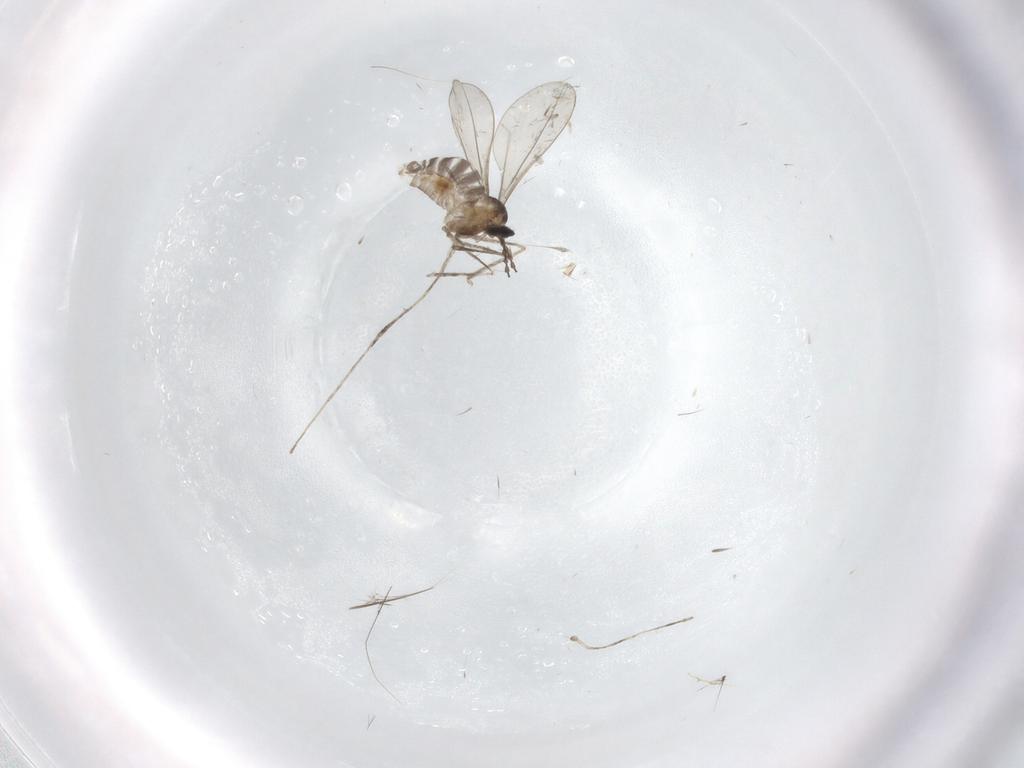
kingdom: Animalia
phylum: Arthropoda
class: Insecta
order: Diptera
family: Cecidomyiidae
